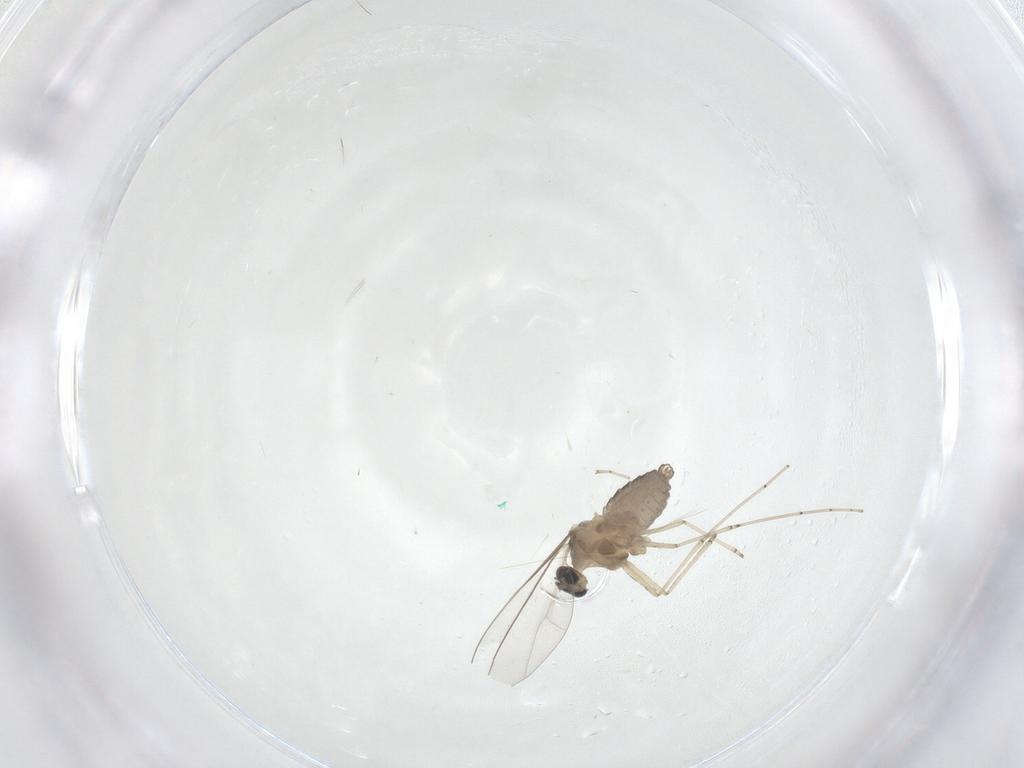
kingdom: Animalia
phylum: Arthropoda
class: Insecta
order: Diptera
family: Cecidomyiidae
